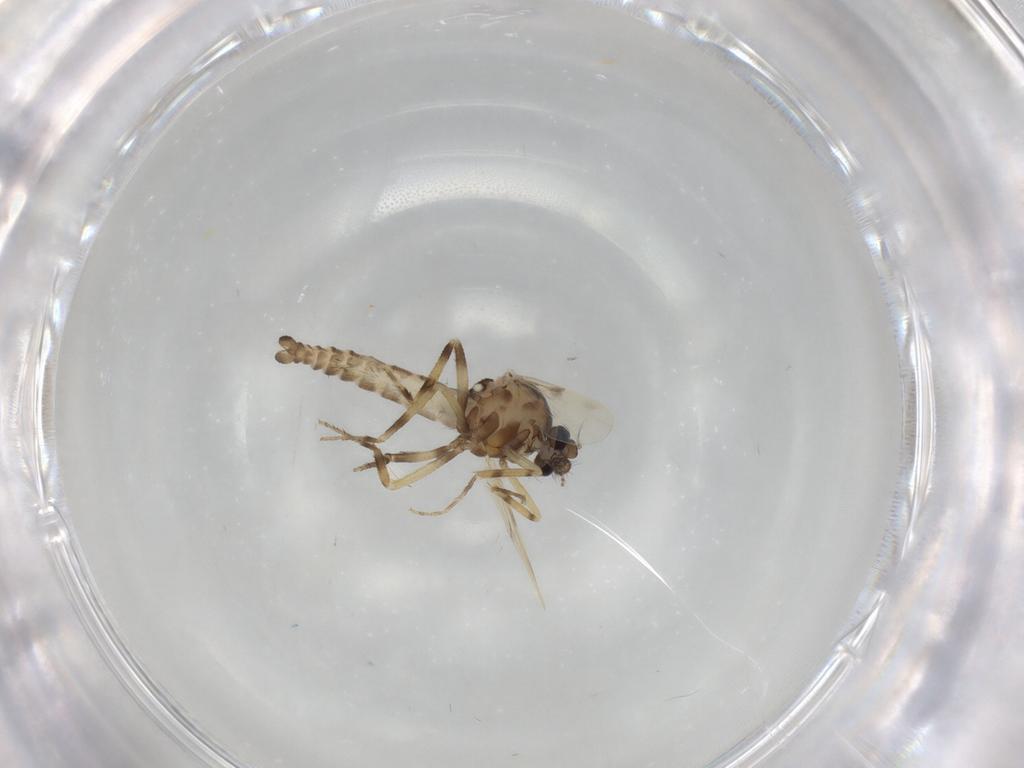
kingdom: Animalia
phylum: Arthropoda
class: Insecta
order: Diptera
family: Ceratopogonidae
